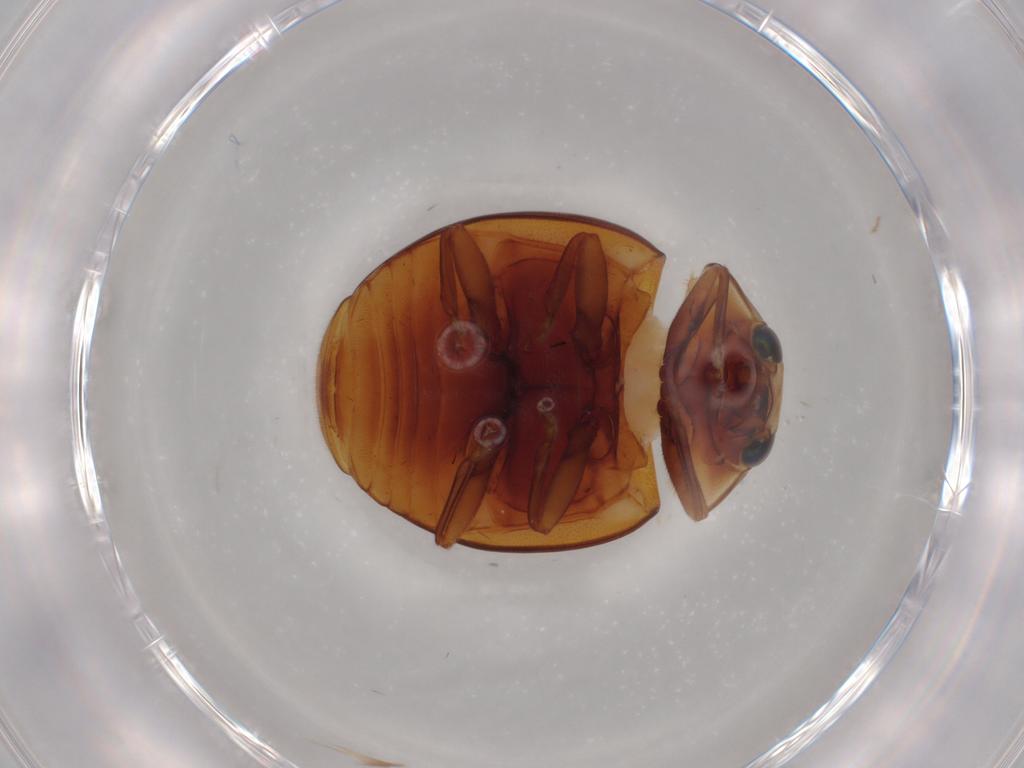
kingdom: Animalia
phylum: Arthropoda
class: Insecta
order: Coleoptera
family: Coccinellidae
